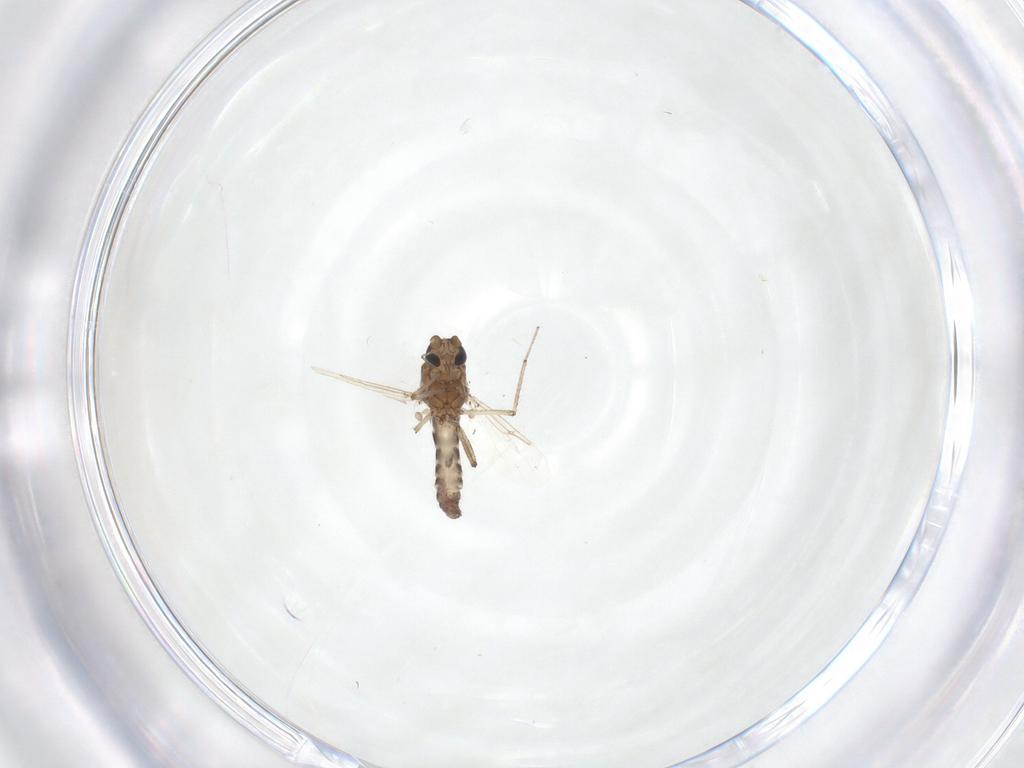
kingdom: Animalia
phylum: Arthropoda
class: Insecta
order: Diptera
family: Ceratopogonidae
